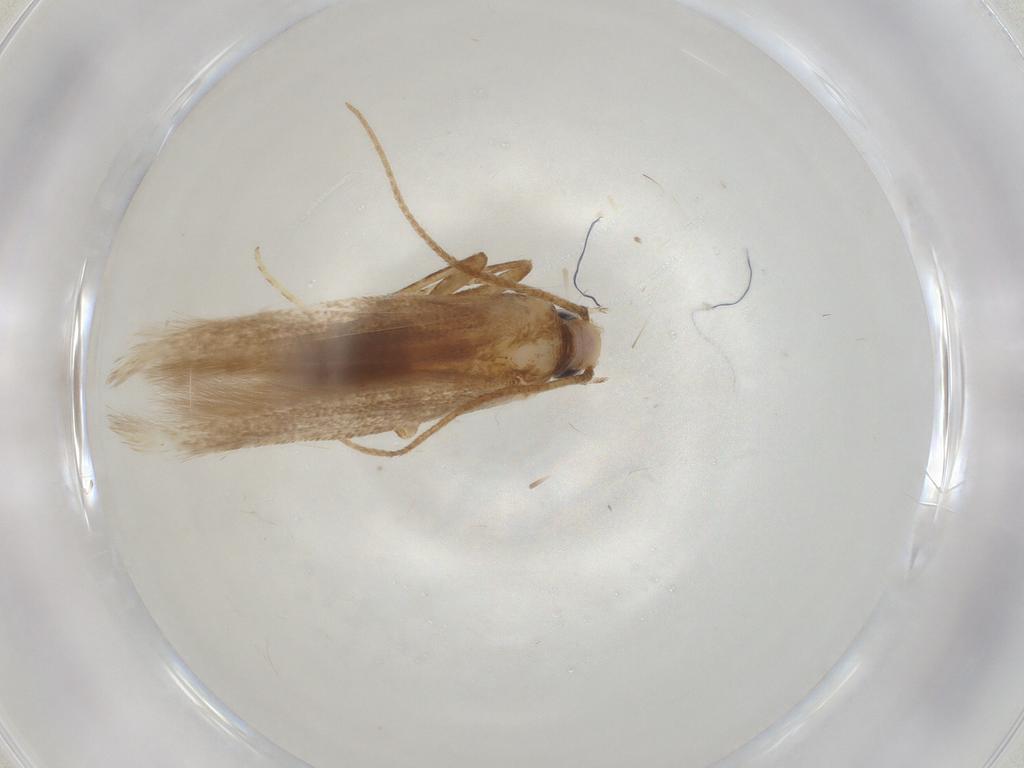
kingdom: Animalia
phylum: Arthropoda
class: Insecta
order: Lepidoptera
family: Batrachedridae
